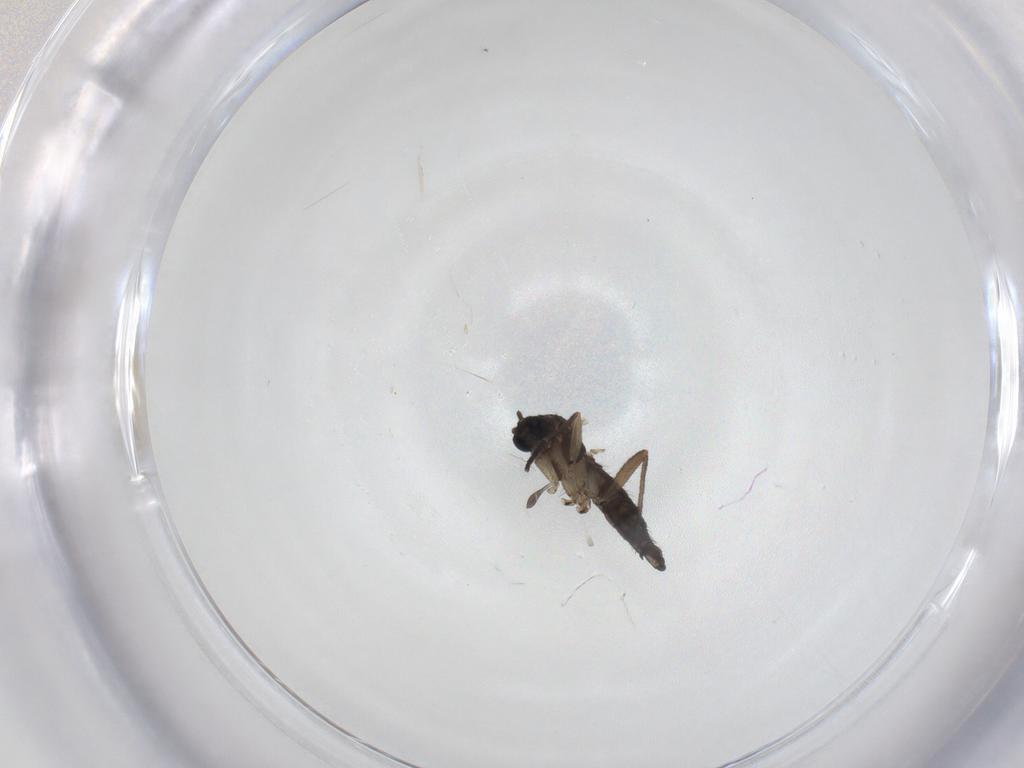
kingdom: Animalia
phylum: Arthropoda
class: Insecta
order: Diptera
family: Sciaridae
